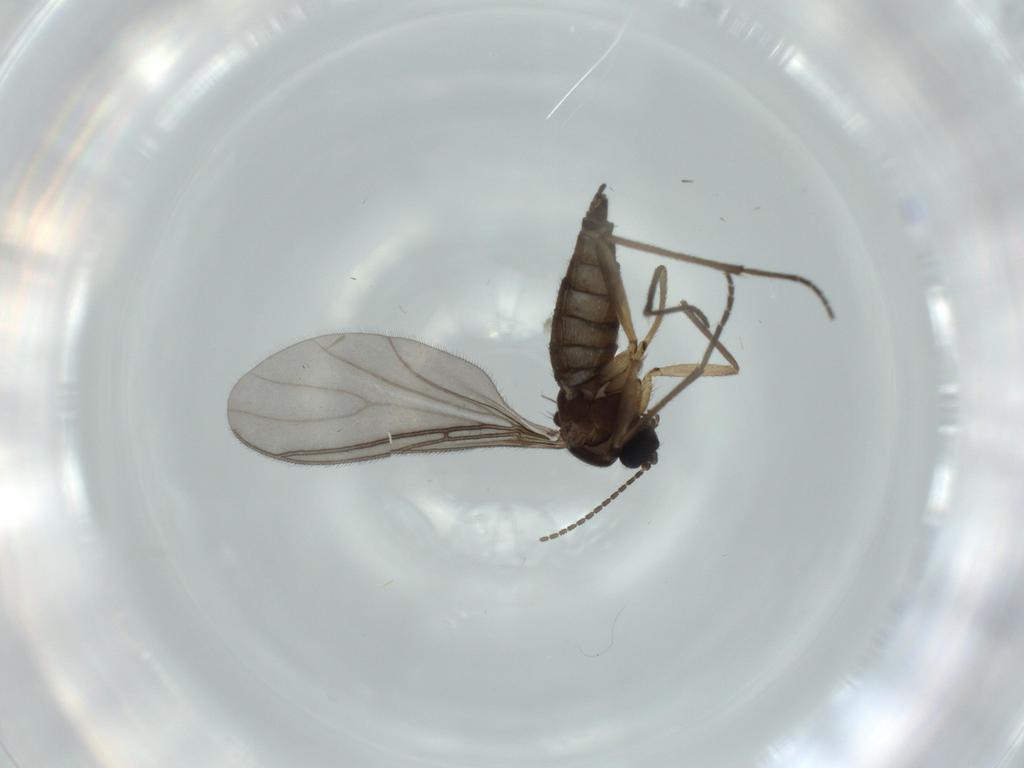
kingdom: Animalia
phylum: Arthropoda
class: Insecta
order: Diptera
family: Sciaridae
